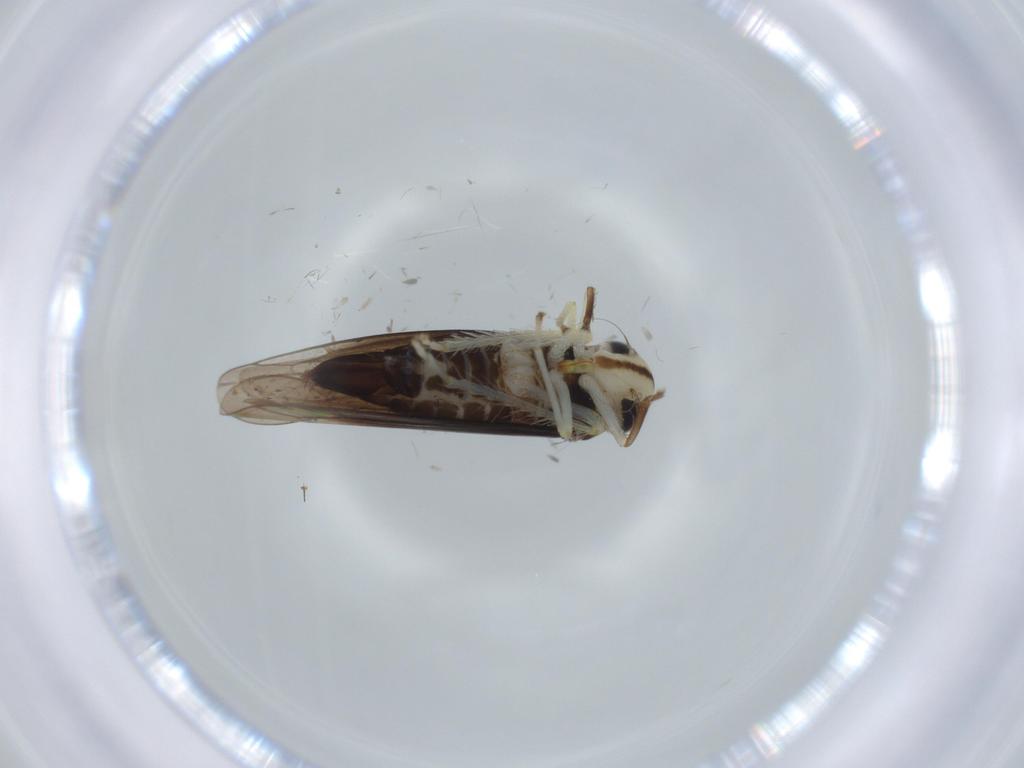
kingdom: Animalia
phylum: Arthropoda
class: Insecta
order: Hemiptera
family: Cicadellidae
